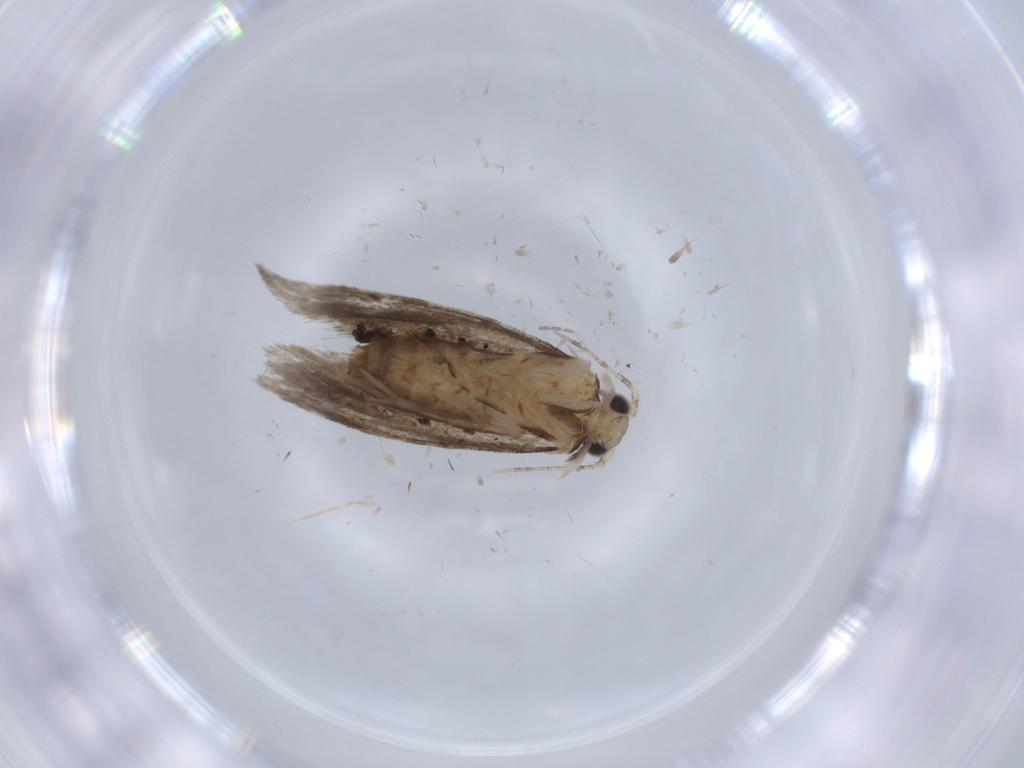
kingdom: Animalia
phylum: Arthropoda
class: Insecta
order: Lepidoptera
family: Tineidae
